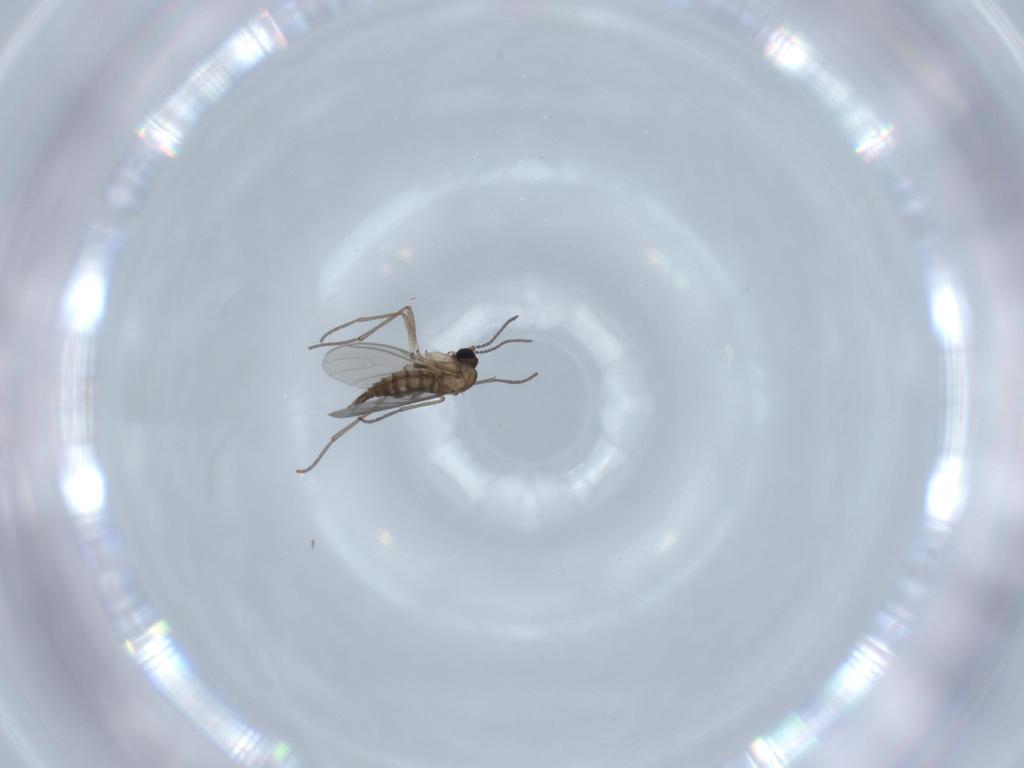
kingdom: Animalia
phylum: Arthropoda
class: Insecta
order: Diptera
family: Sciaridae
